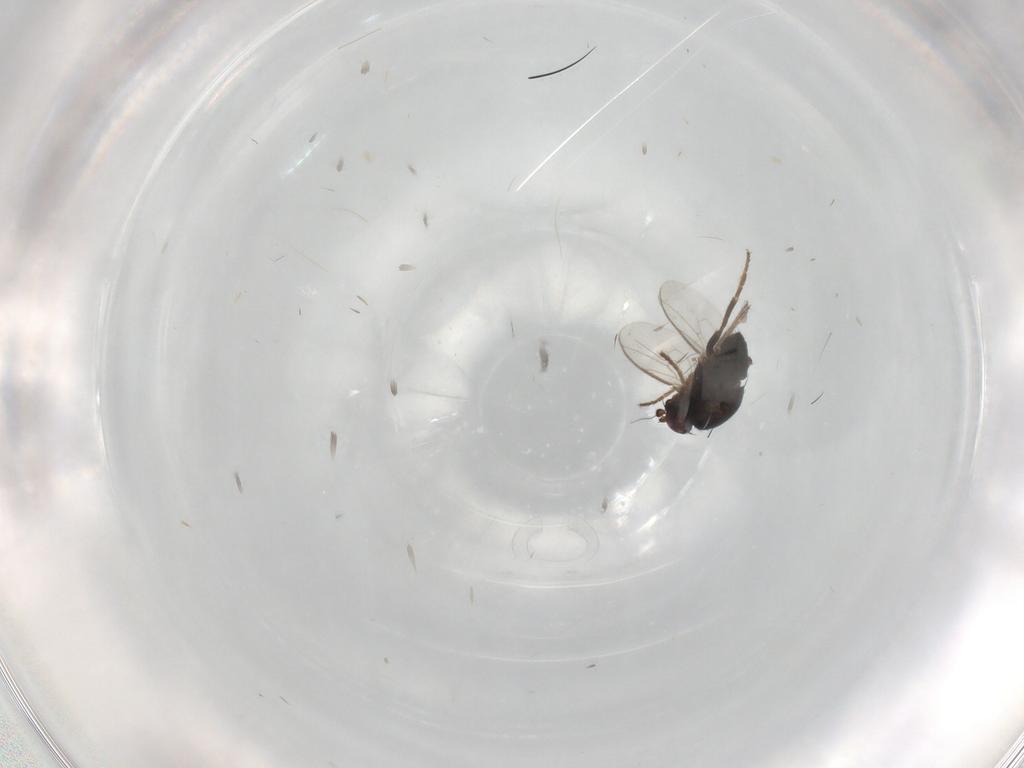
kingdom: Animalia
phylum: Arthropoda
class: Insecta
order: Diptera
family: Sphaeroceridae
